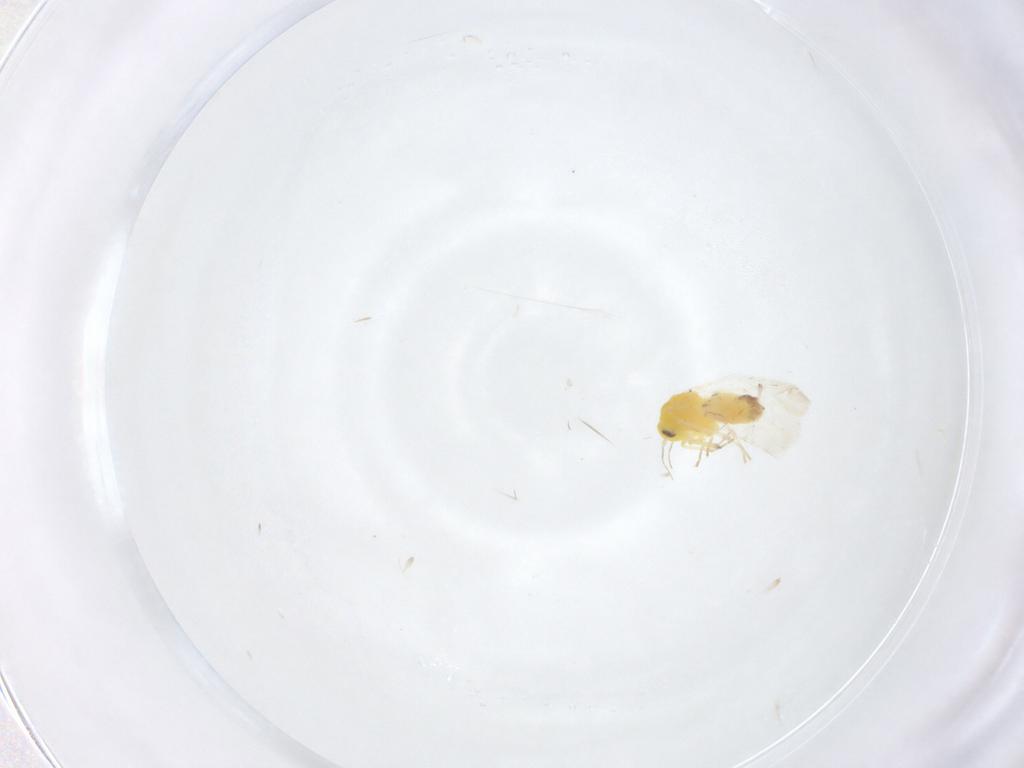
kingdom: Animalia
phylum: Arthropoda
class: Insecta
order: Hemiptera
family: Aleyrodidae
